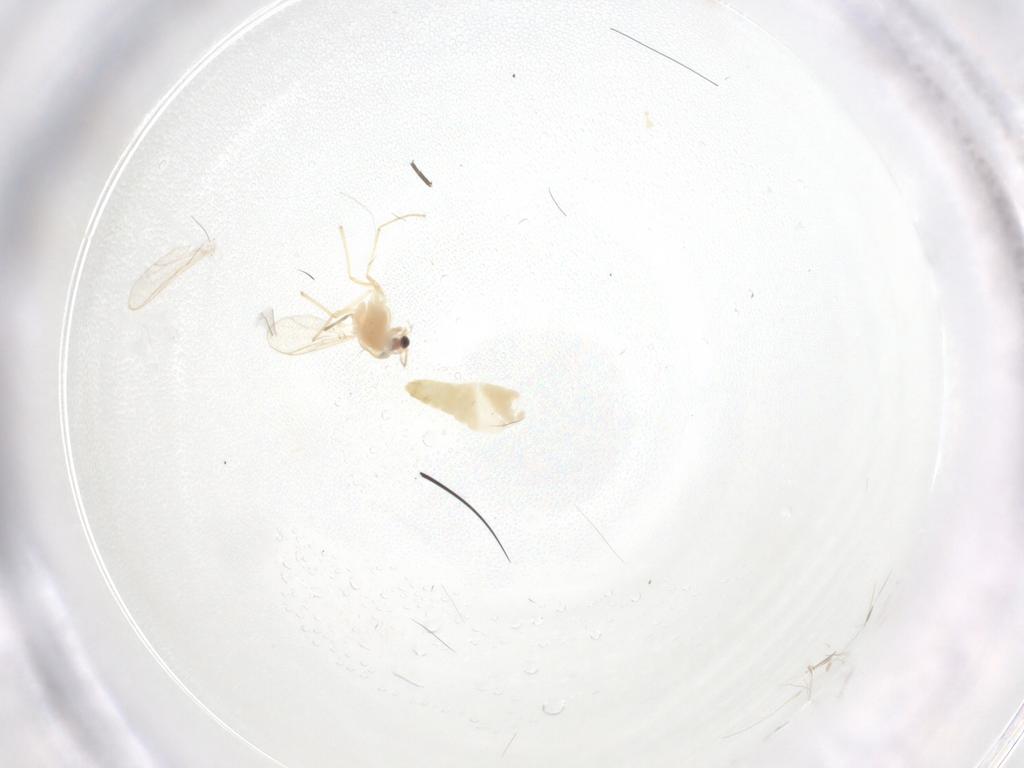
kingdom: Animalia
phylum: Arthropoda
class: Insecta
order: Diptera
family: Chironomidae
